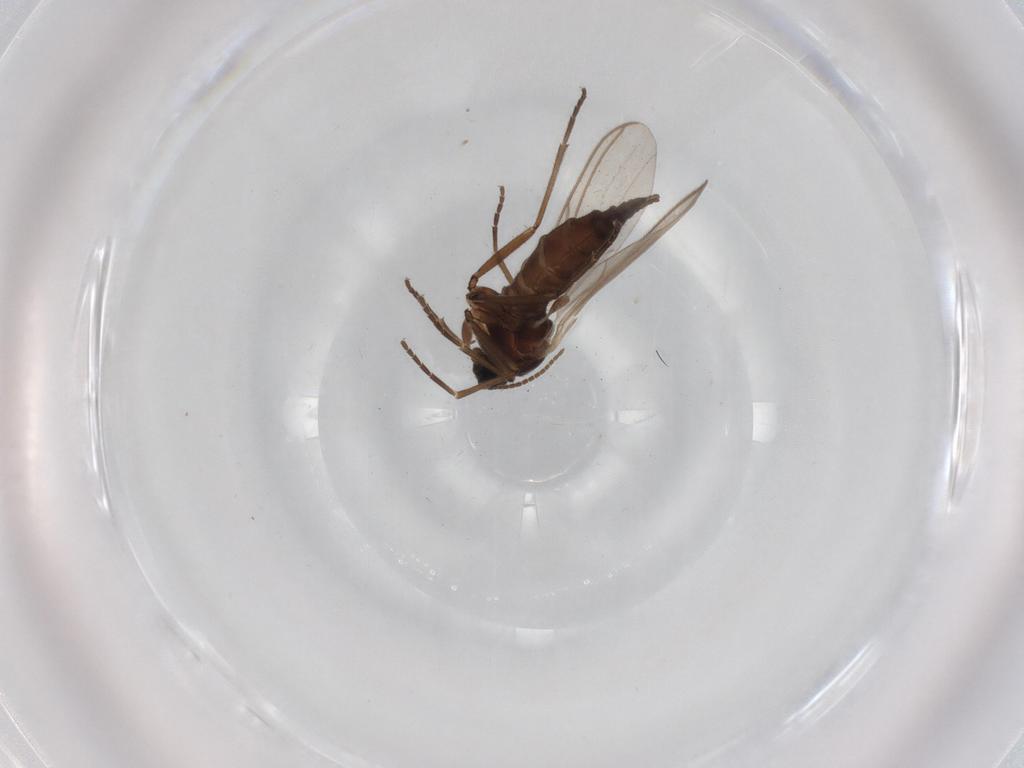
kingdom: Animalia
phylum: Arthropoda
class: Insecta
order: Diptera
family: Sciaridae
